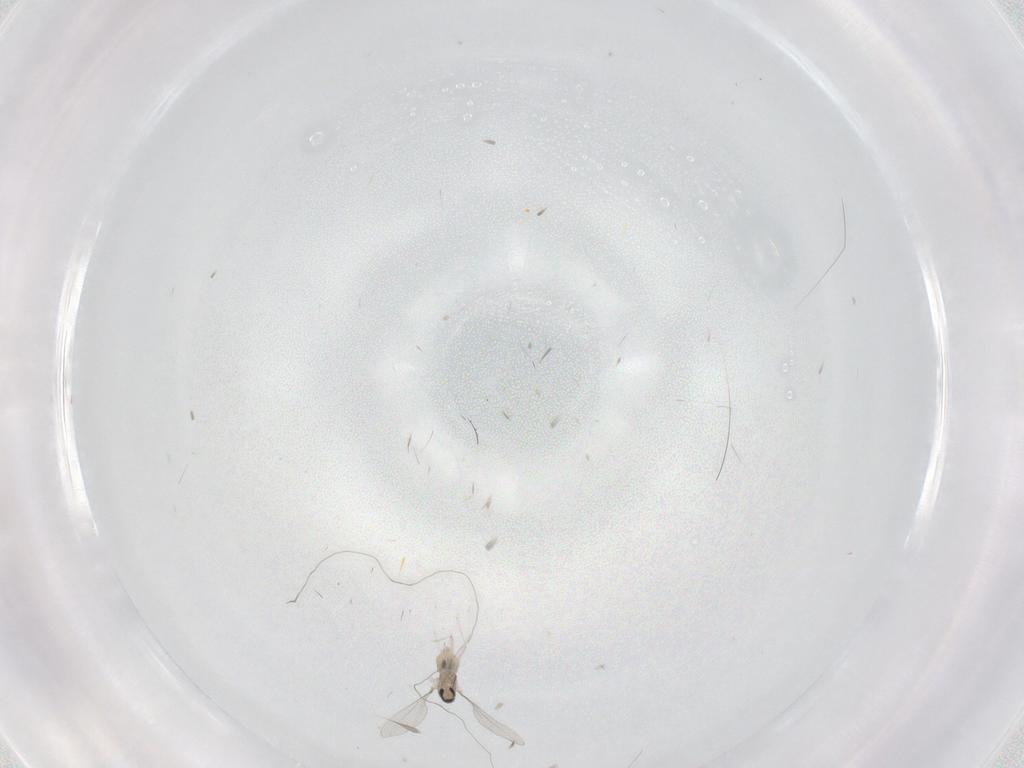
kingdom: Animalia
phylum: Arthropoda
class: Insecta
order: Diptera
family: Cecidomyiidae
